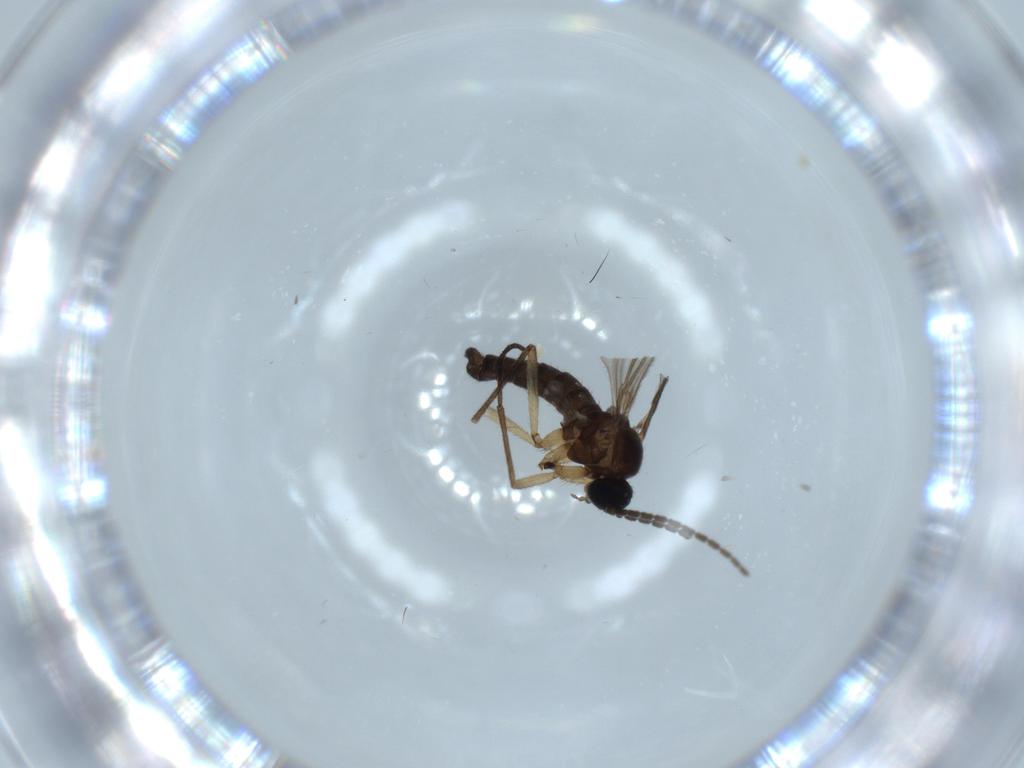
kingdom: Animalia
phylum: Arthropoda
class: Insecta
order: Diptera
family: Sciaridae
